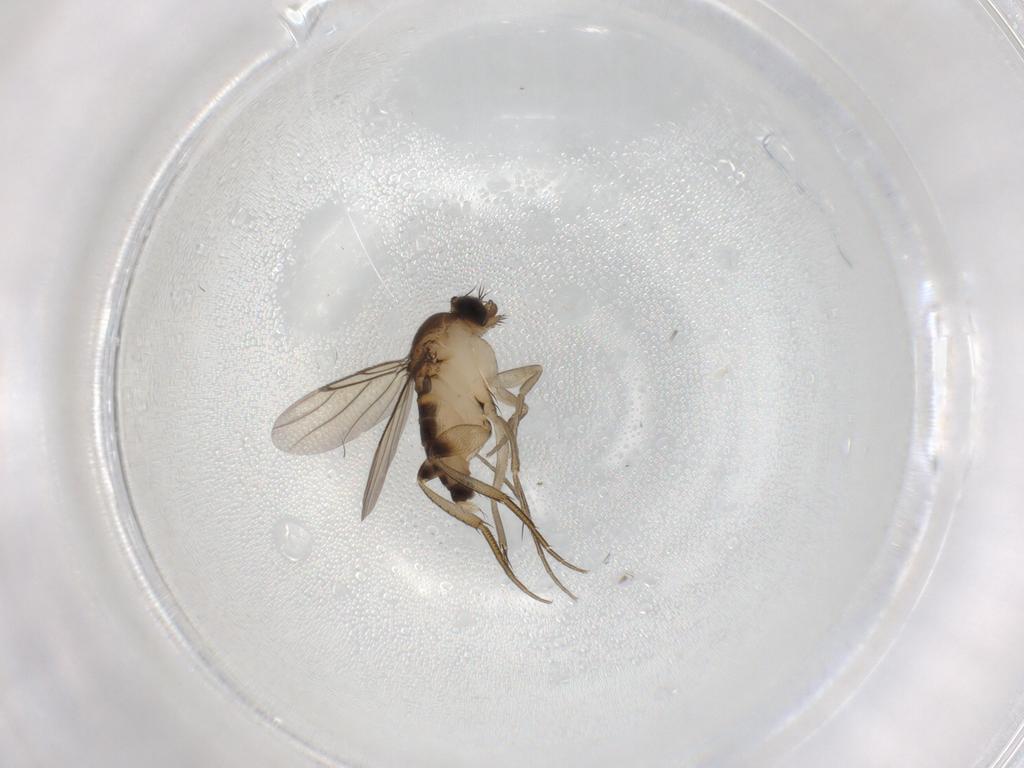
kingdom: Animalia
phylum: Arthropoda
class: Insecta
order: Diptera
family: Phoridae
